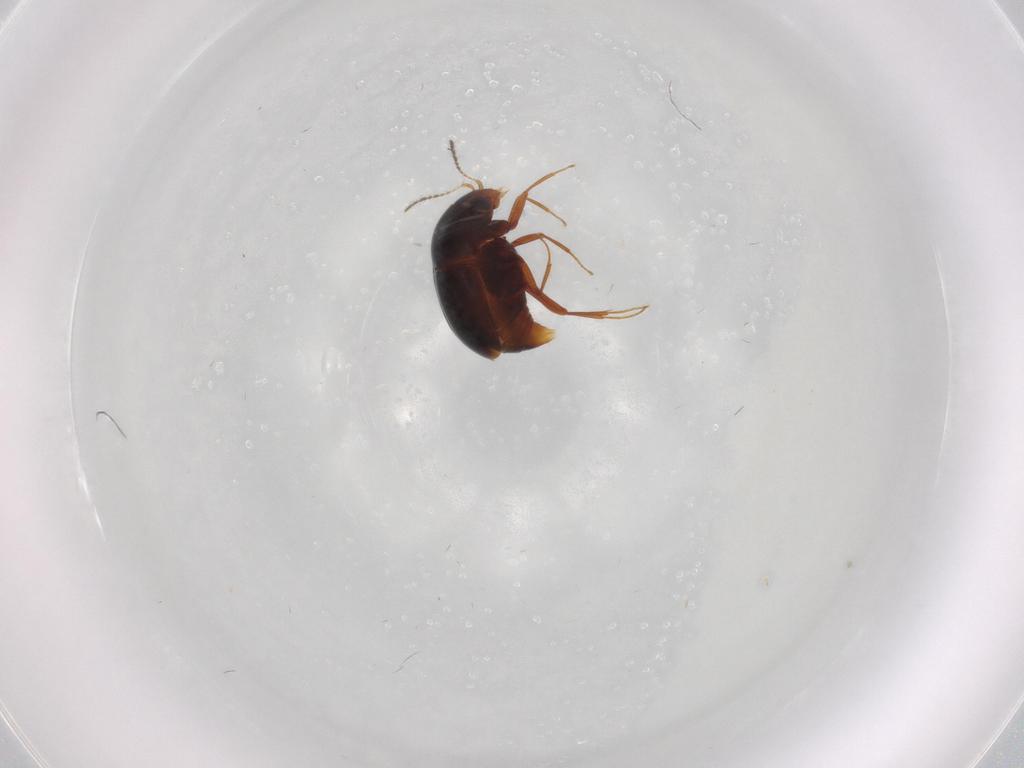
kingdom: Animalia
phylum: Arthropoda
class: Insecta
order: Coleoptera
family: Staphylinidae
